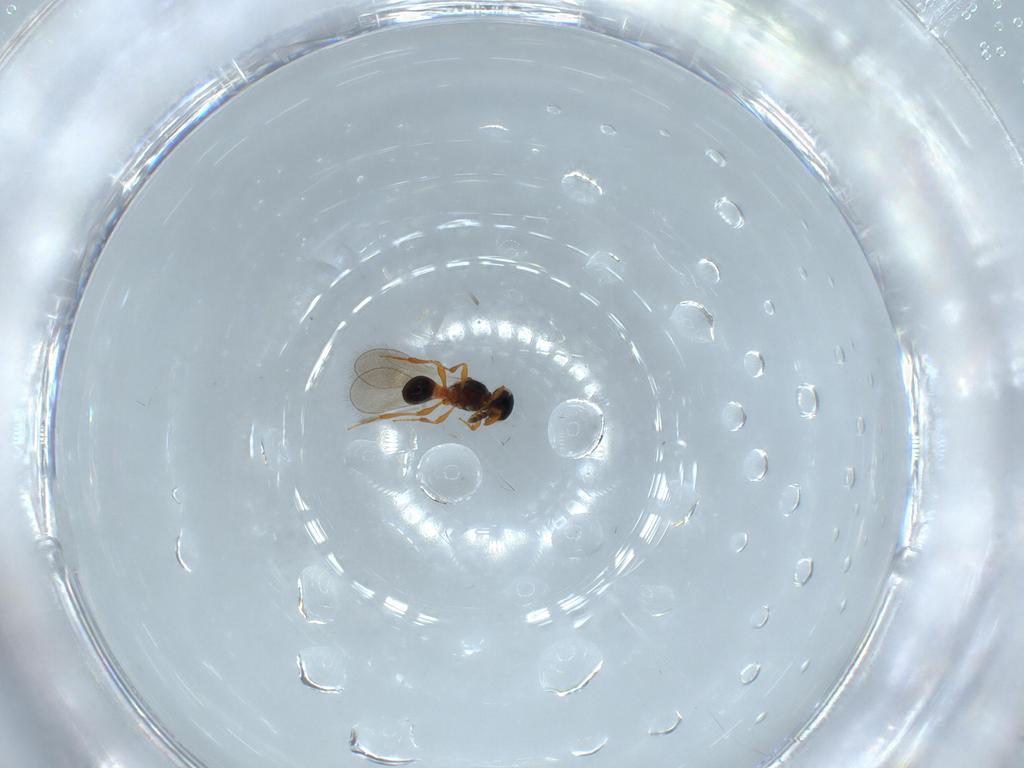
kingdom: Animalia
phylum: Arthropoda
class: Insecta
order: Hymenoptera
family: Platygastridae
